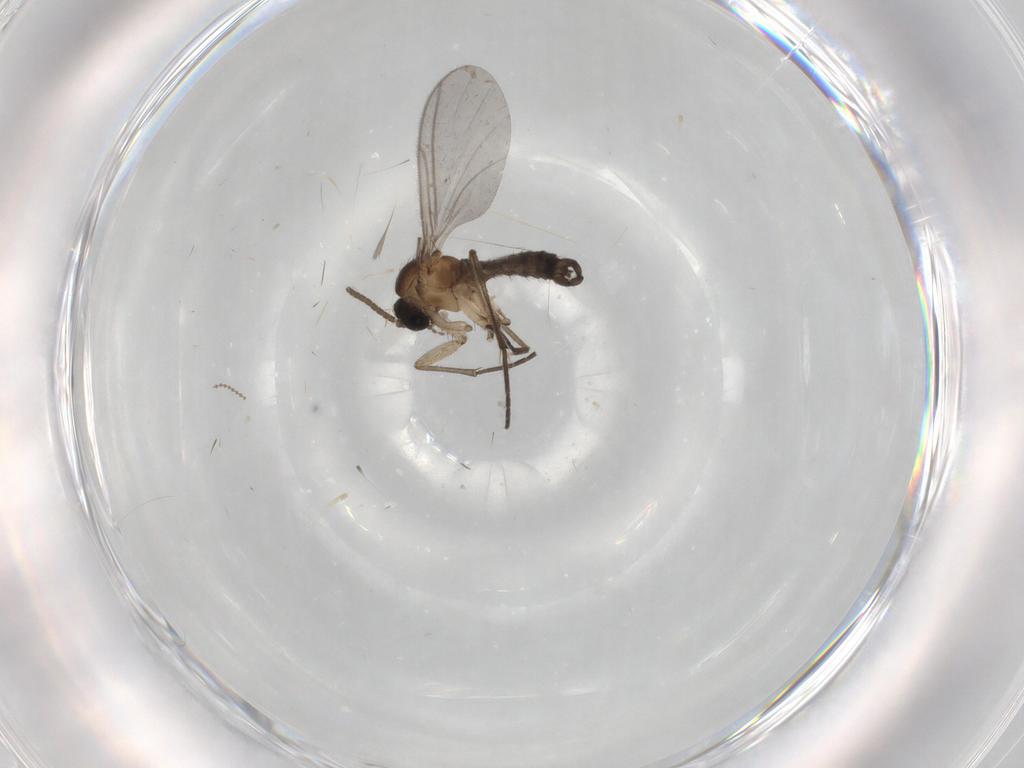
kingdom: Animalia
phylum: Arthropoda
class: Insecta
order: Diptera
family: Cecidomyiidae
